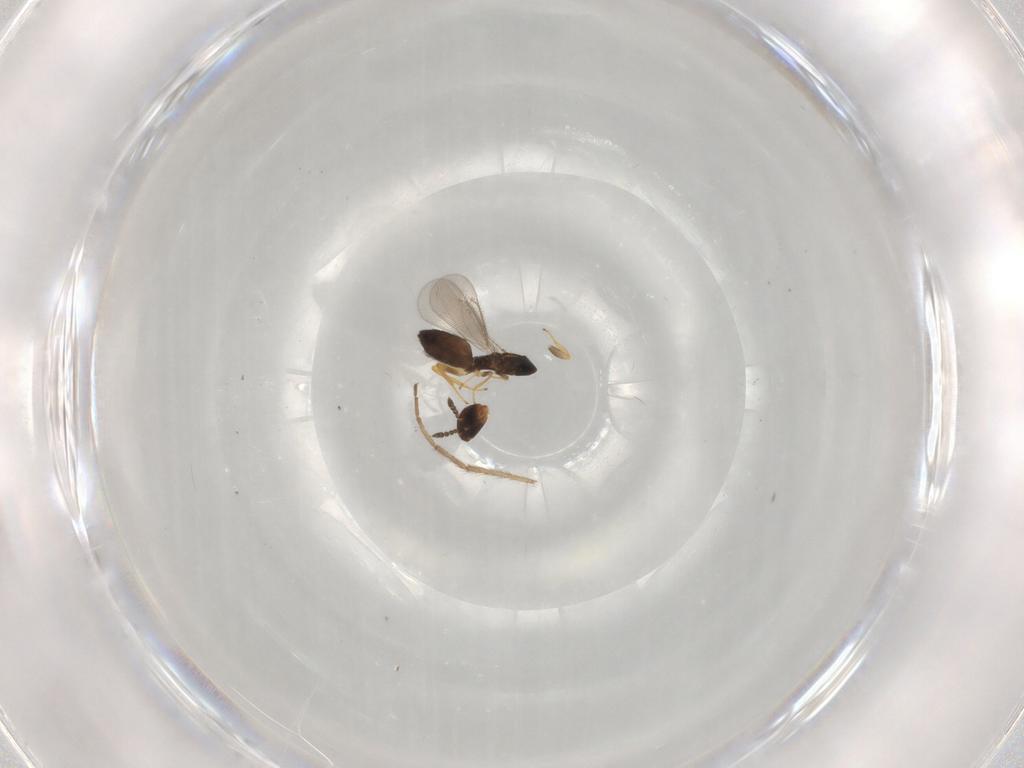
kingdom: Animalia
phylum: Arthropoda
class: Insecta
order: Hymenoptera
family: Eulophidae
